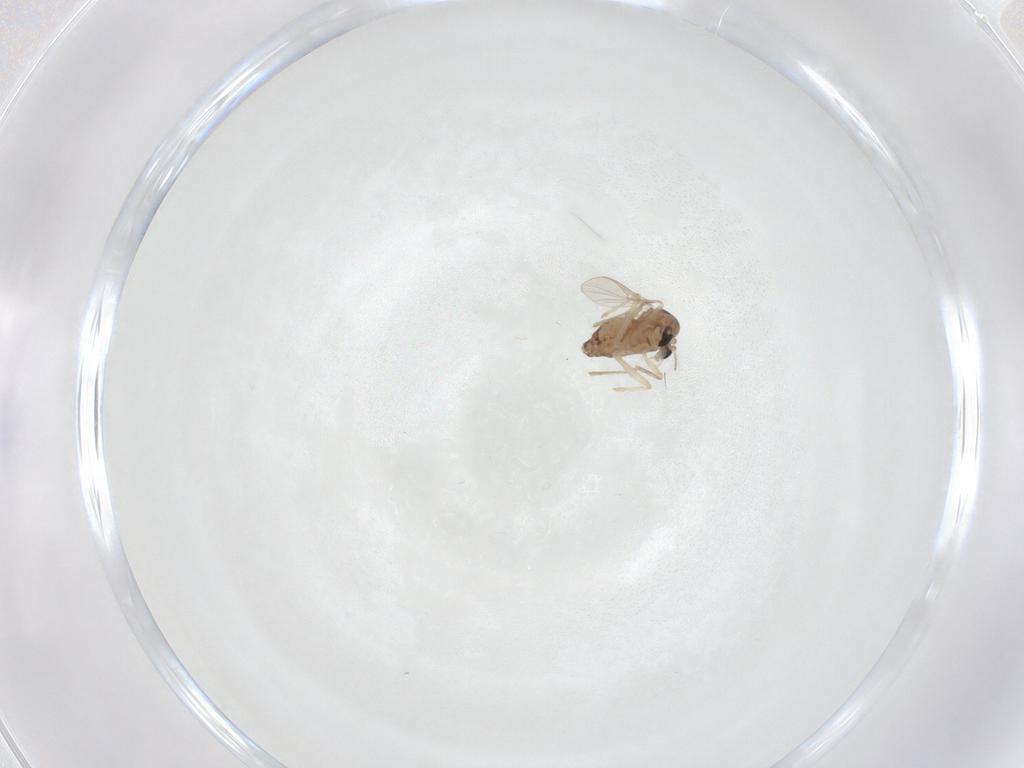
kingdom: Animalia
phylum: Arthropoda
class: Insecta
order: Diptera
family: Chironomidae
